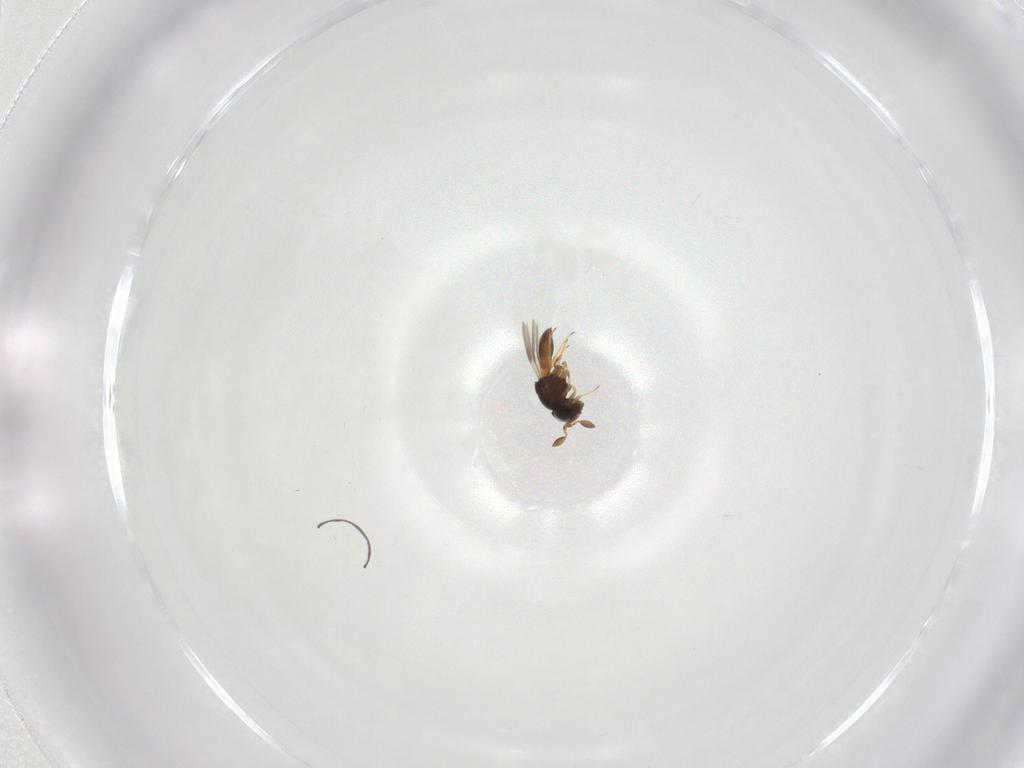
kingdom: Animalia
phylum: Arthropoda
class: Insecta
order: Hymenoptera
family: Scelionidae
